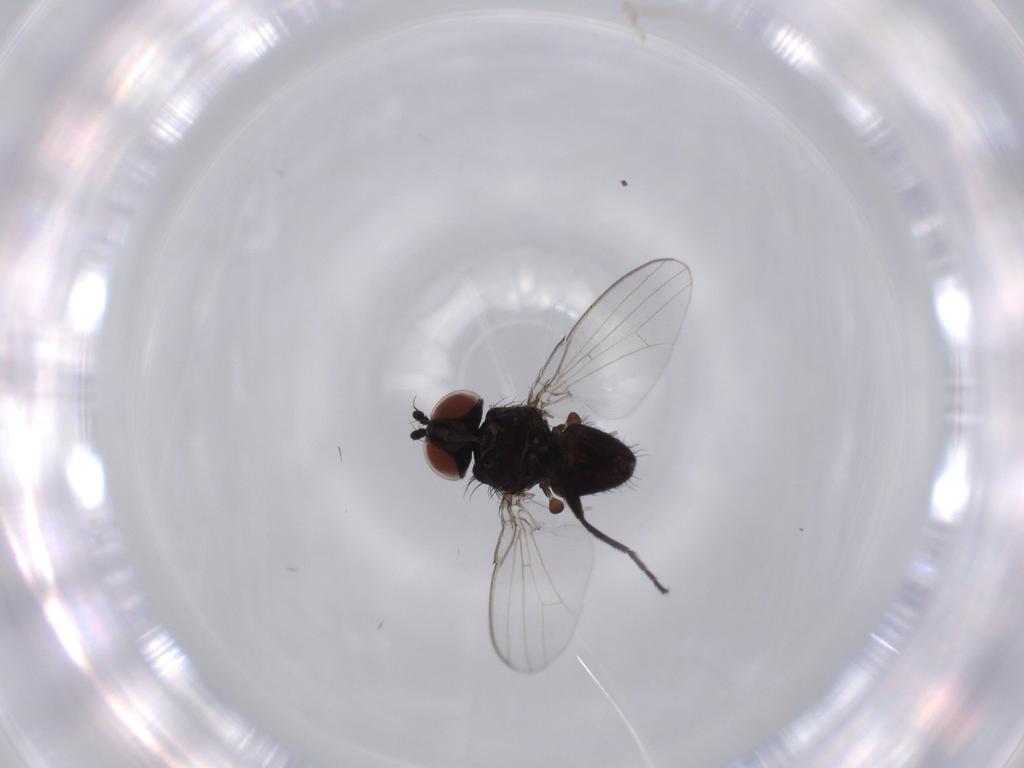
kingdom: Animalia
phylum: Arthropoda
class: Insecta
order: Diptera
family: Milichiidae
